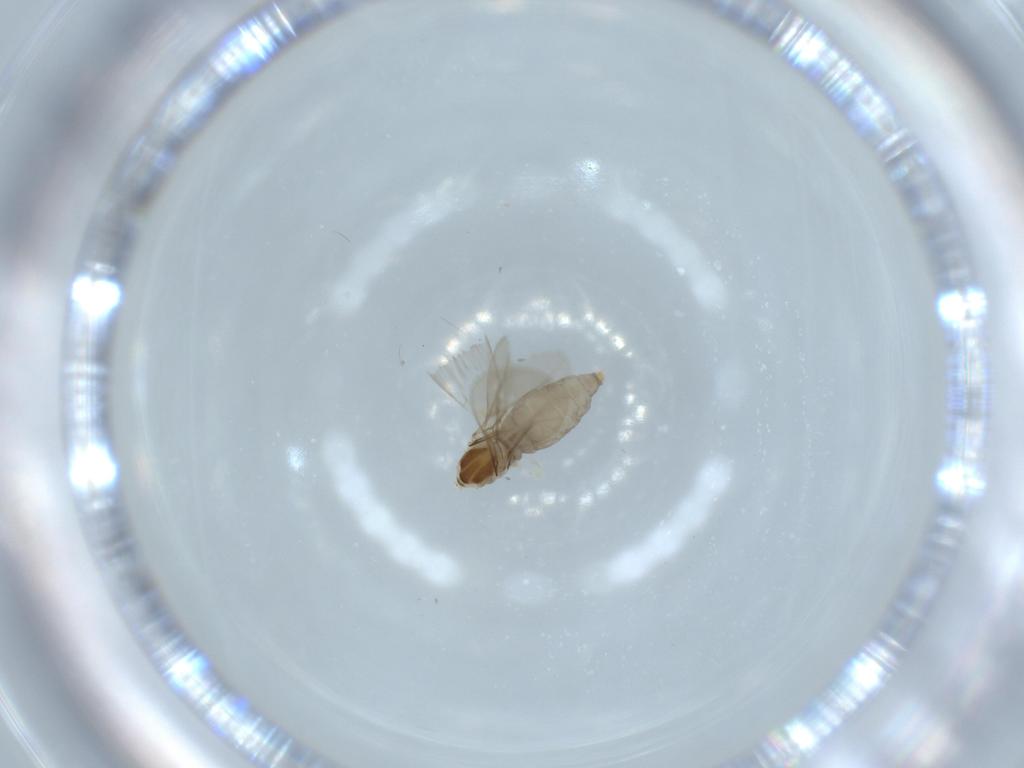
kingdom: Animalia
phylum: Arthropoda
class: Insecta
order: Diptera
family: Cecidomyiidae
